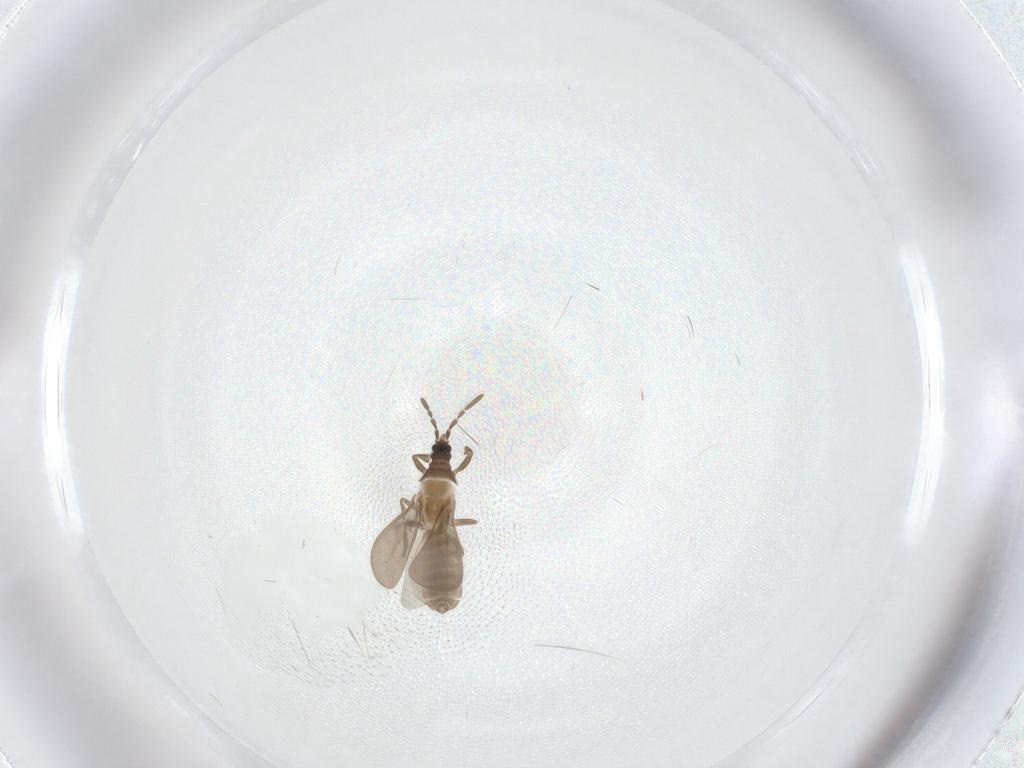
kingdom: Animalia
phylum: Arthropoda
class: Insecta
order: Hemiptera
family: Enicocephalidae
